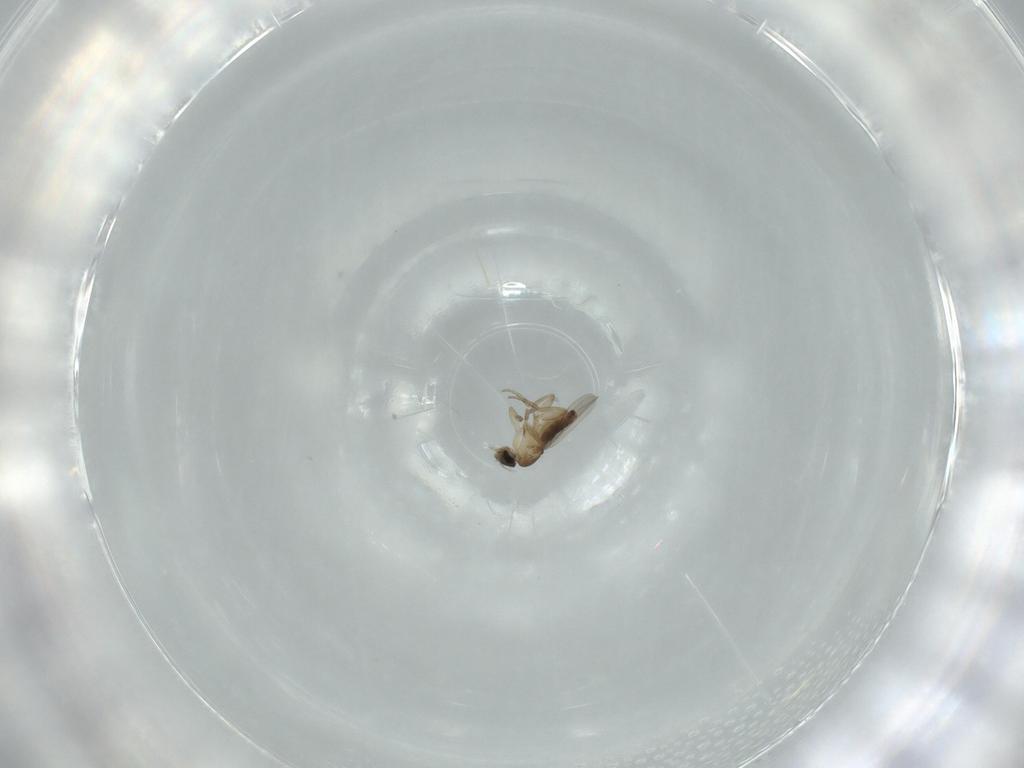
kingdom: Animalia
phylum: Arthropoda
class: Insecta
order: Diptera
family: Phoridae
